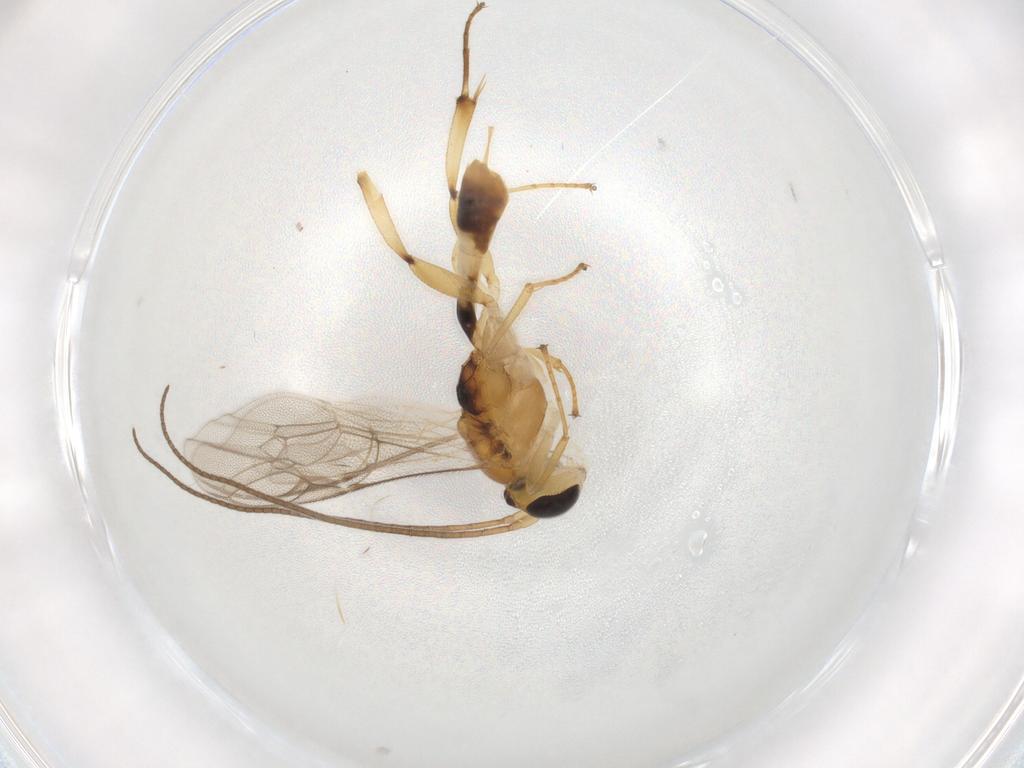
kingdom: Animalia
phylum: Arthropoda
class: Insecta
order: Hymenoptera
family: Ichneumonidae
